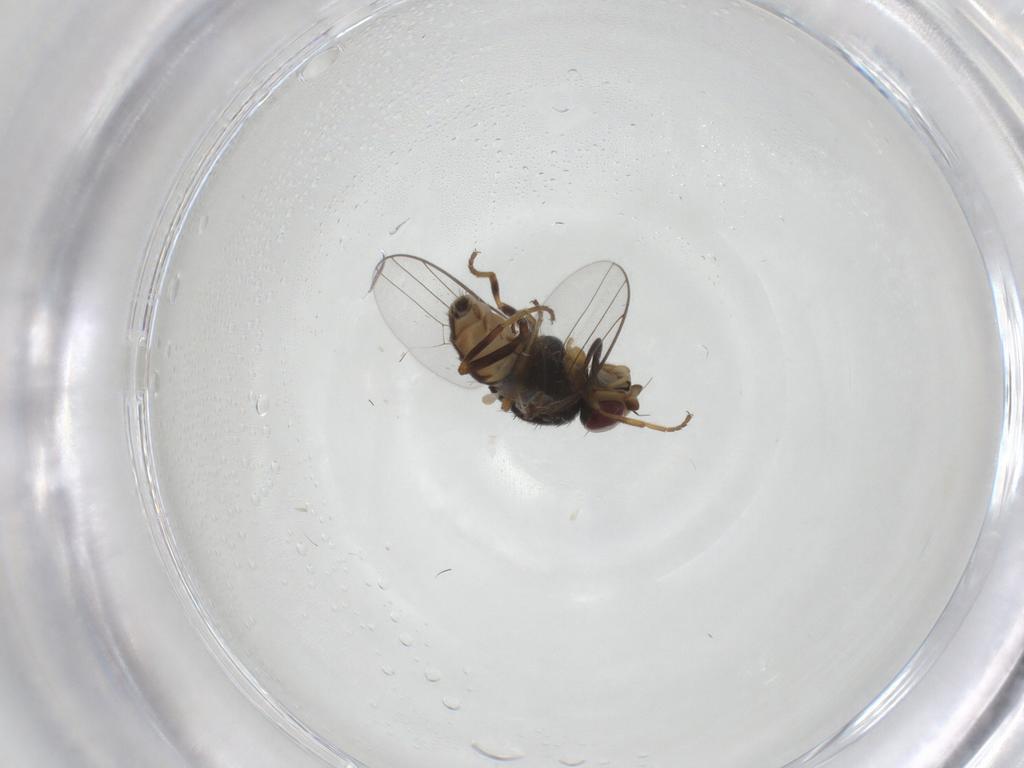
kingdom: Animalia
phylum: Arthropoda
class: Insecta
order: Diptera
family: Chloropidae
